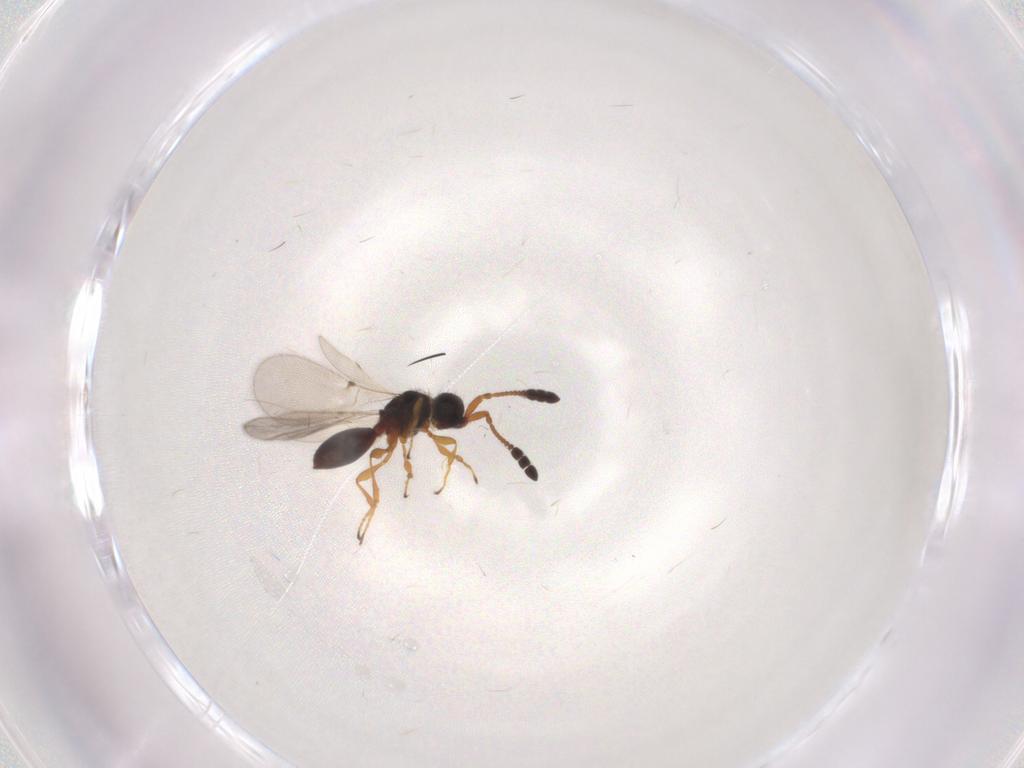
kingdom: Animalia
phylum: Arthropoda
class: Insecta
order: Hymenoptera
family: Diapriidae
